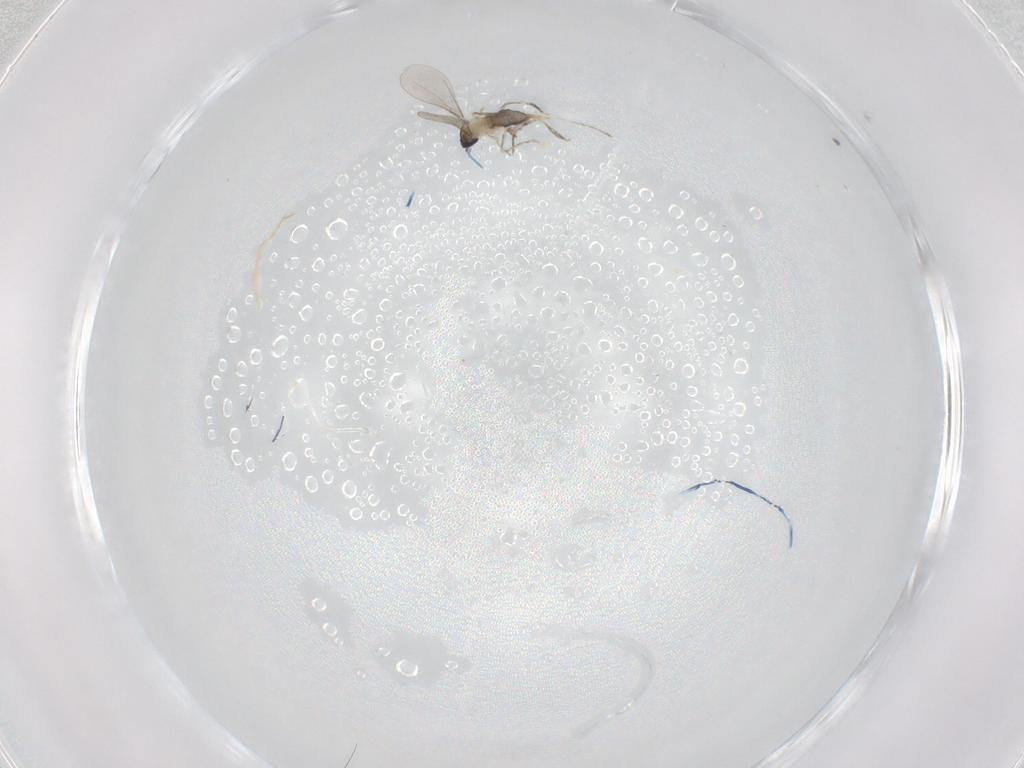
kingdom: Animalia
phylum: Arthropoda
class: Insecta
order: Diptera
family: Cecidomyiidae
